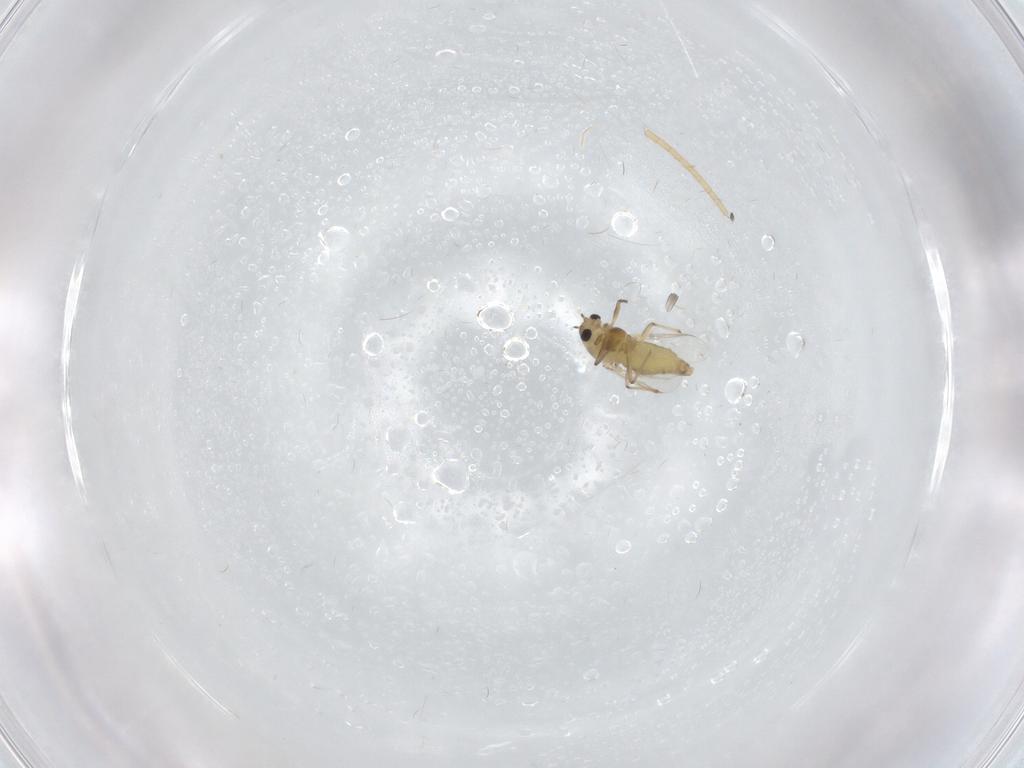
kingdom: Animalia
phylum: Arthropoda
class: Insecta
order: Diptera
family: Chironomidae
